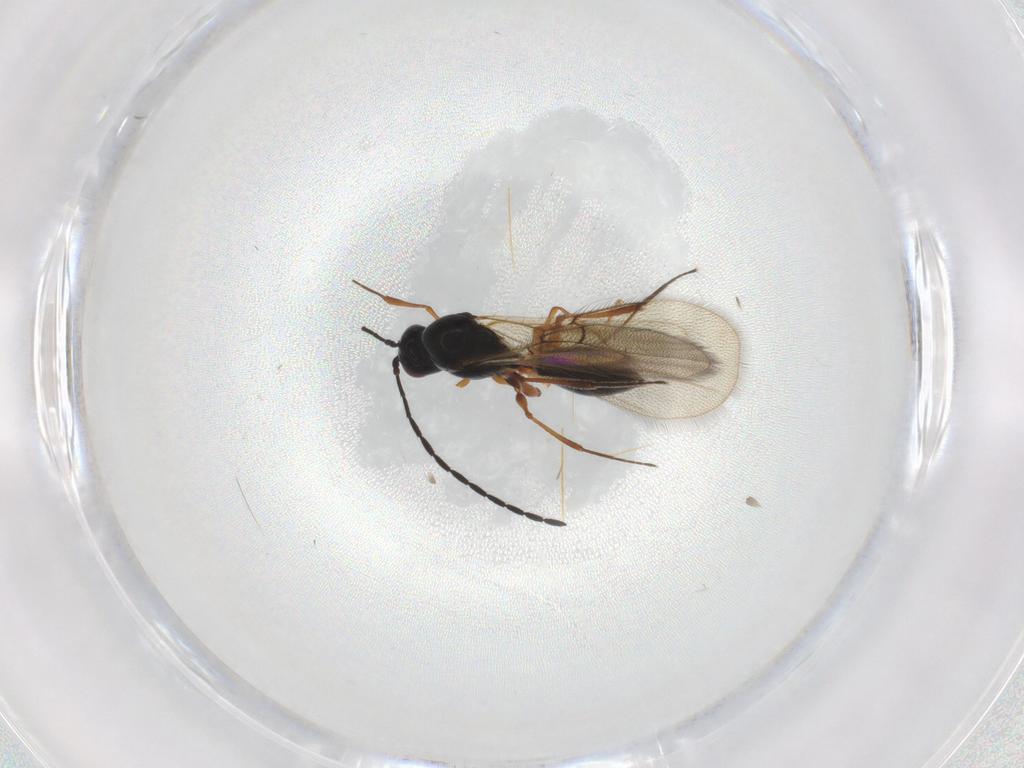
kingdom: Animalia
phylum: Arthropoda
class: Insecta
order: Hymenoptera
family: Figitidae
